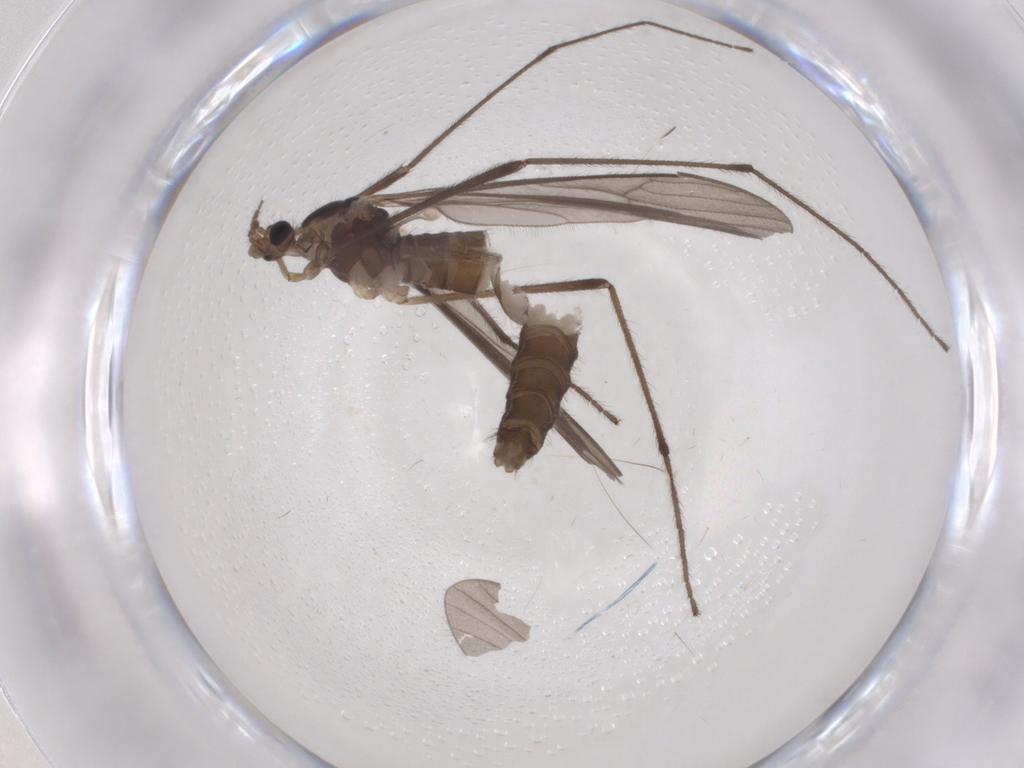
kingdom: Animalia
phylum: Arthropoda
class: Insecta
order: Diptera
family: Limoniidae
